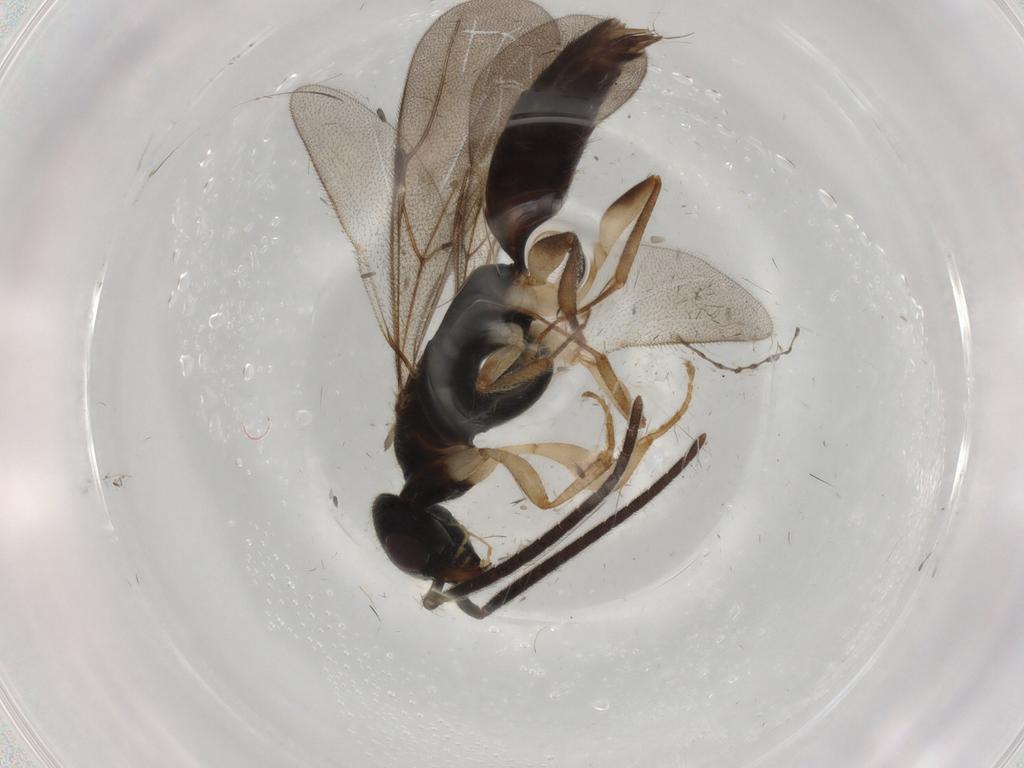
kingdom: Animalia
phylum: Arthropoda
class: Insecta
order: Hymenoptera
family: Bethylidae
